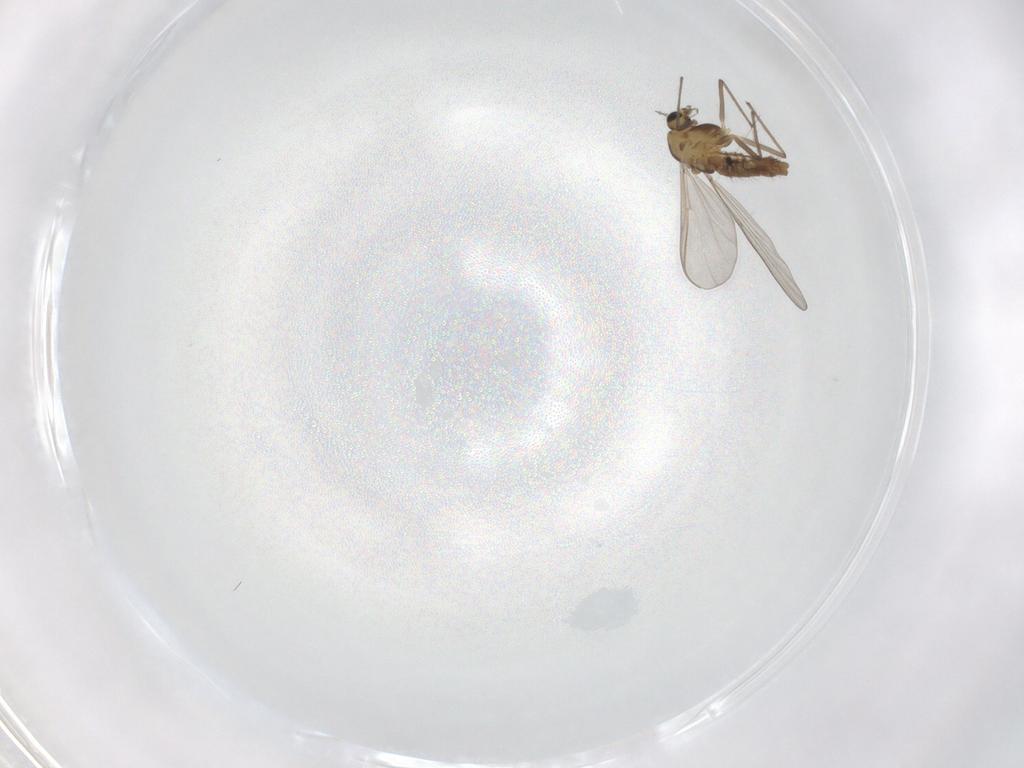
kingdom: Animalia
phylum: Arthropoda
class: Insecta
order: Diptera
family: Chironomidae
